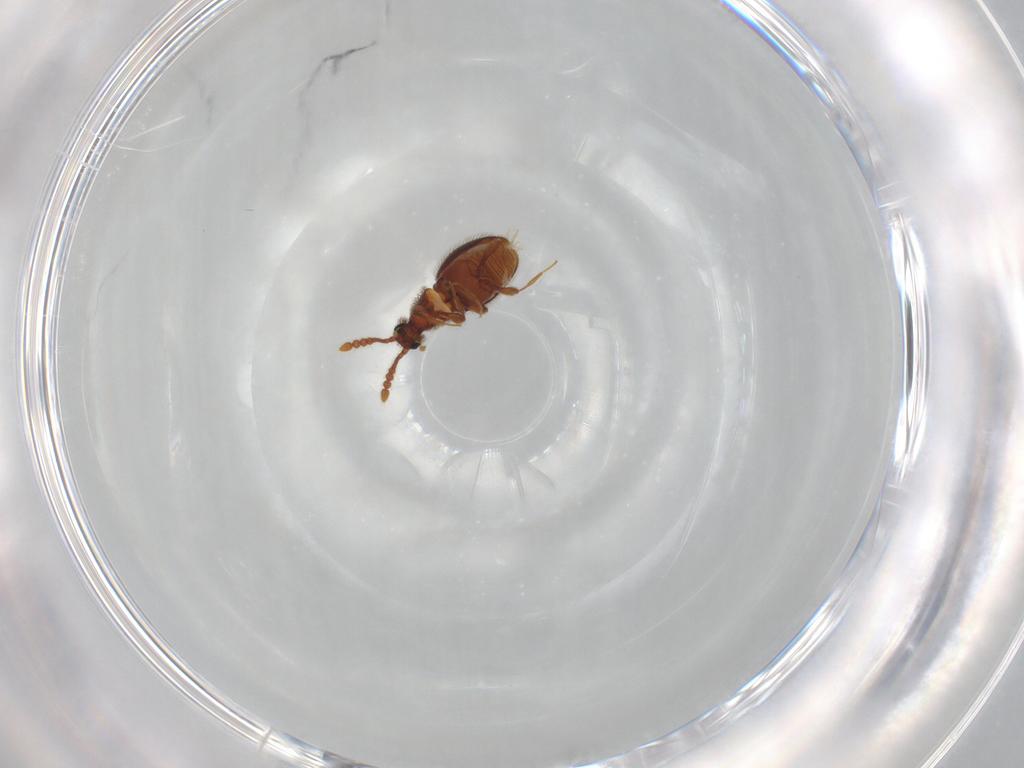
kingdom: Animalia
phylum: Arthropoda
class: Insecta
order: Coleoptera
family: Staphylinidae
